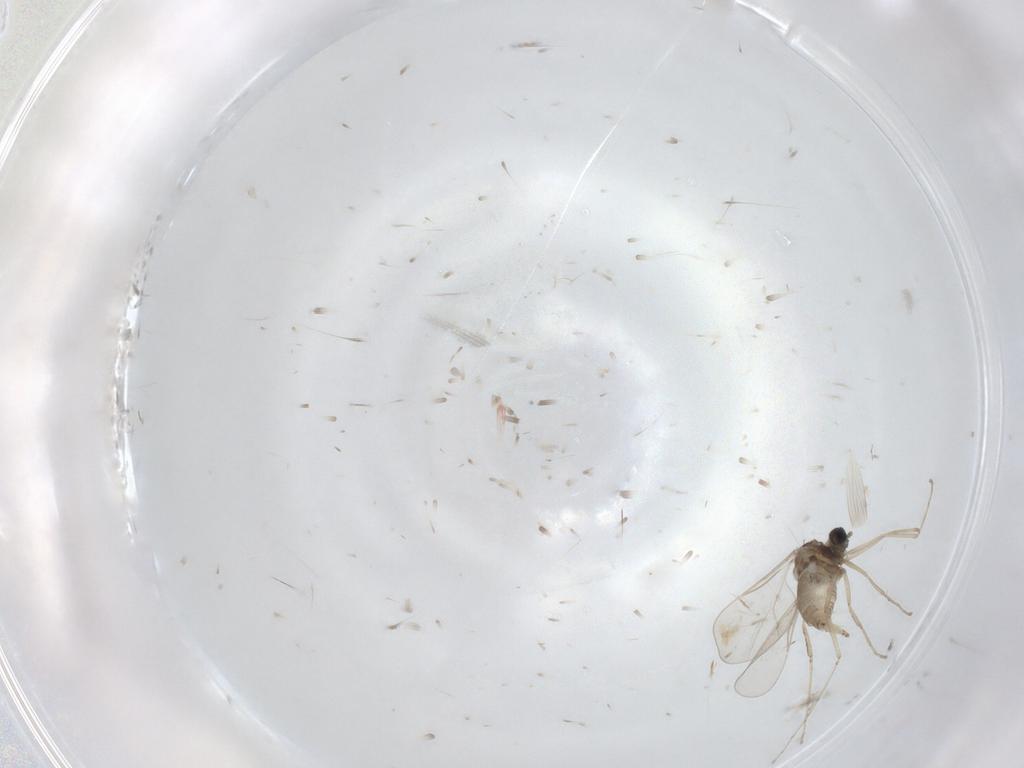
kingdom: Animalia
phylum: Arthropoda
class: Insecta
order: Diptera
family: Cecidomyiidae
